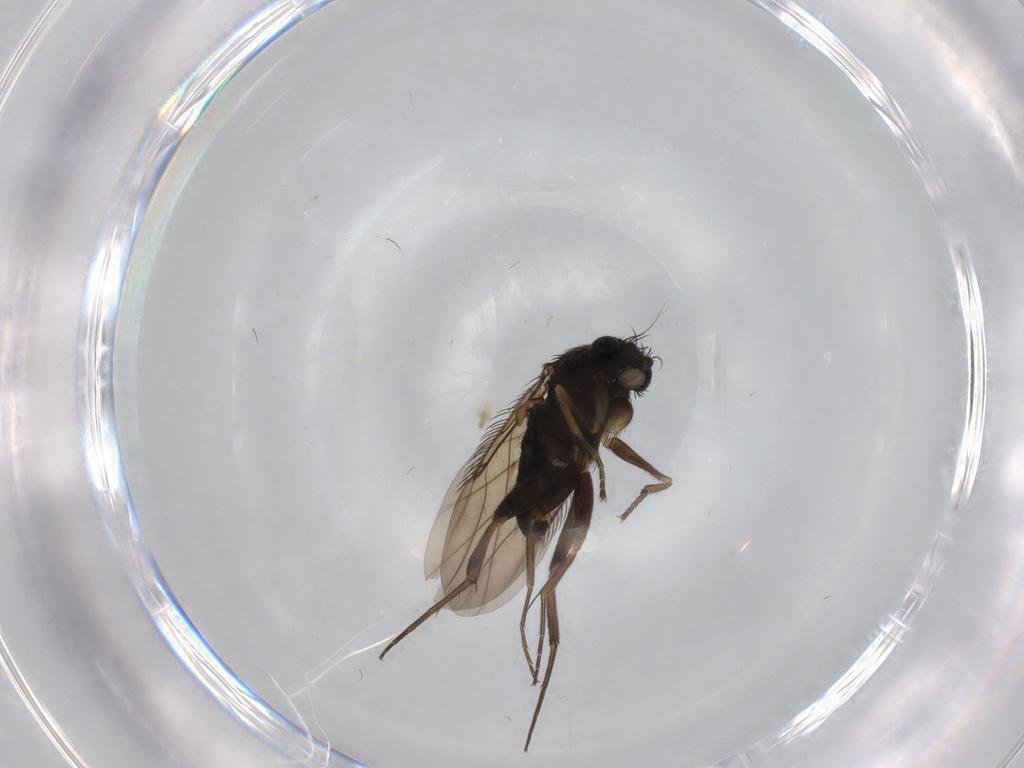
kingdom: Animalia
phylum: Arthropoda
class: Insecta
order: Diptera
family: Phoridae
